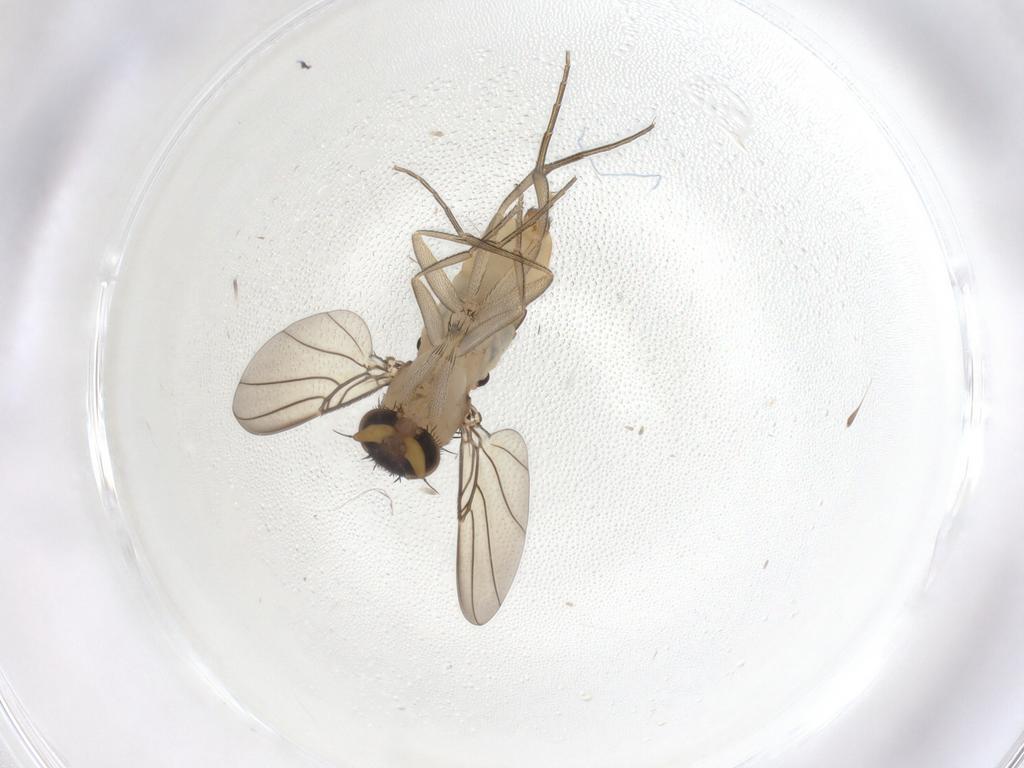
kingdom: Animalia
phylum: Arthropoda
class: Insecta
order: Diptera
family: Phoridae
